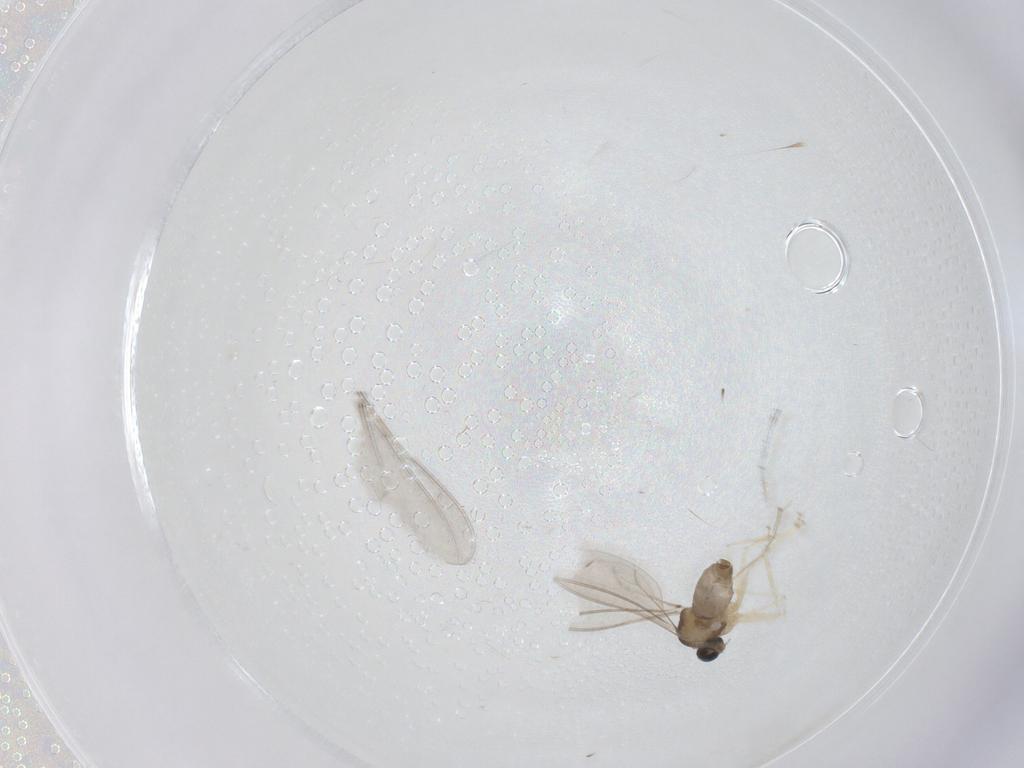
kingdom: Animalia
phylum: Arthropoda
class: Insecta
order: Diptera
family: Cecidomyiidae
